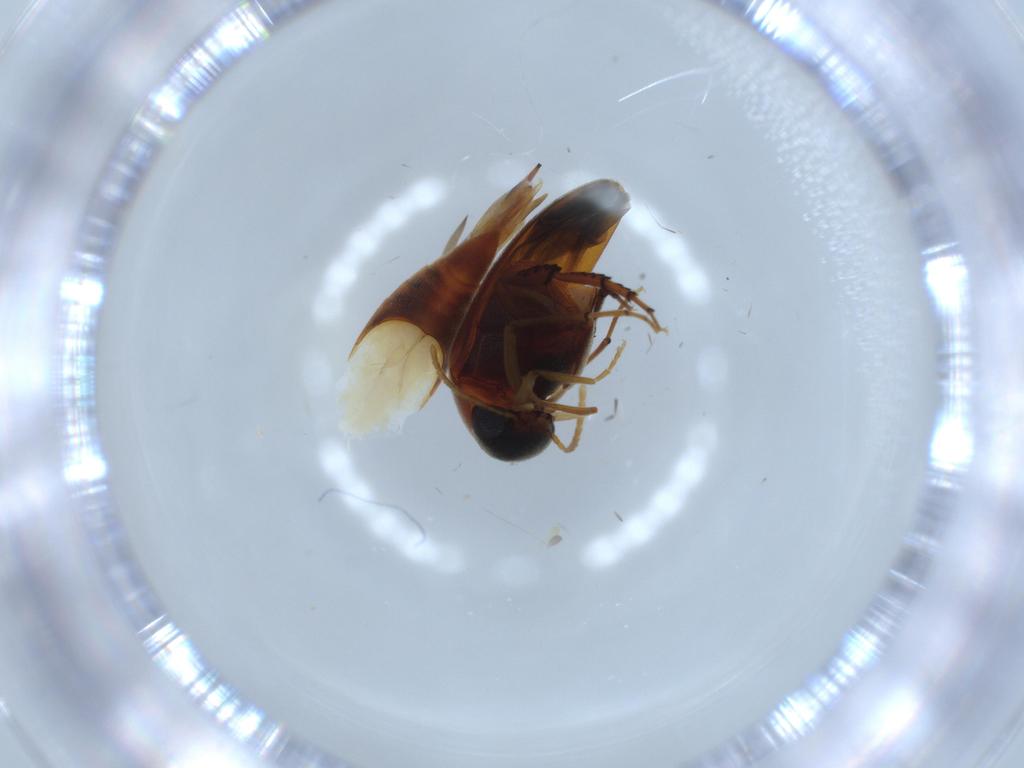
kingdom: Animalia
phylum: Arthropoda
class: Insecta
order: Coleoptera
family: Mordellidae
